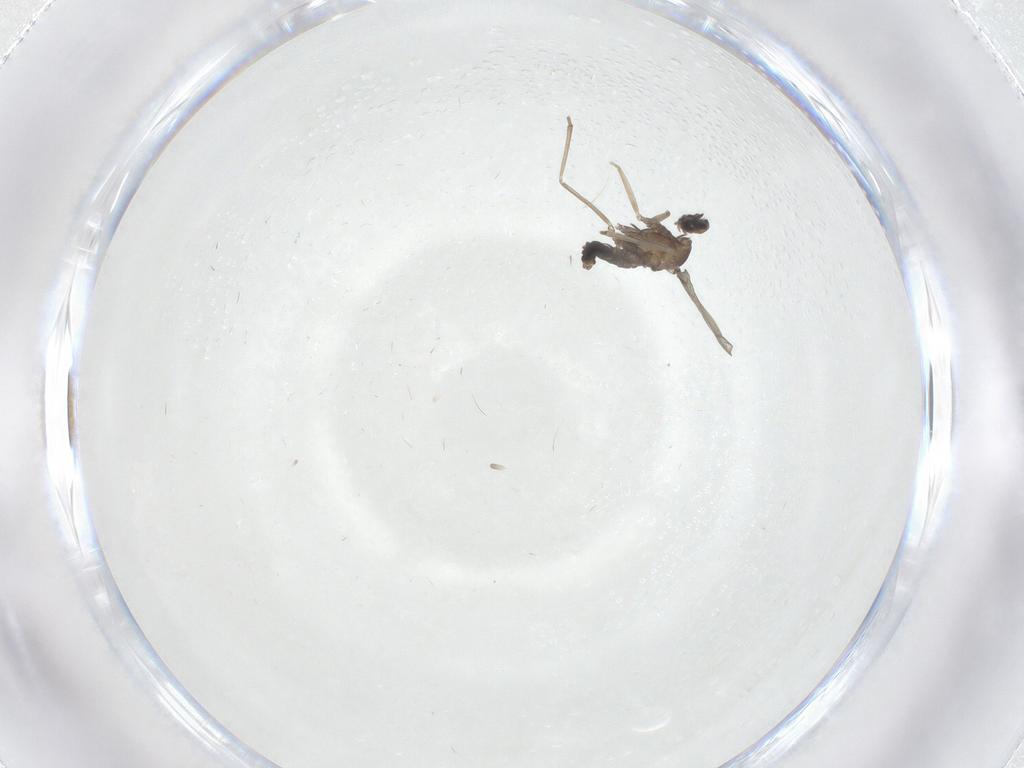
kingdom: Animalia
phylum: Arthropoda
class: Insecta
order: Diptera
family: Cecidomyiidae
